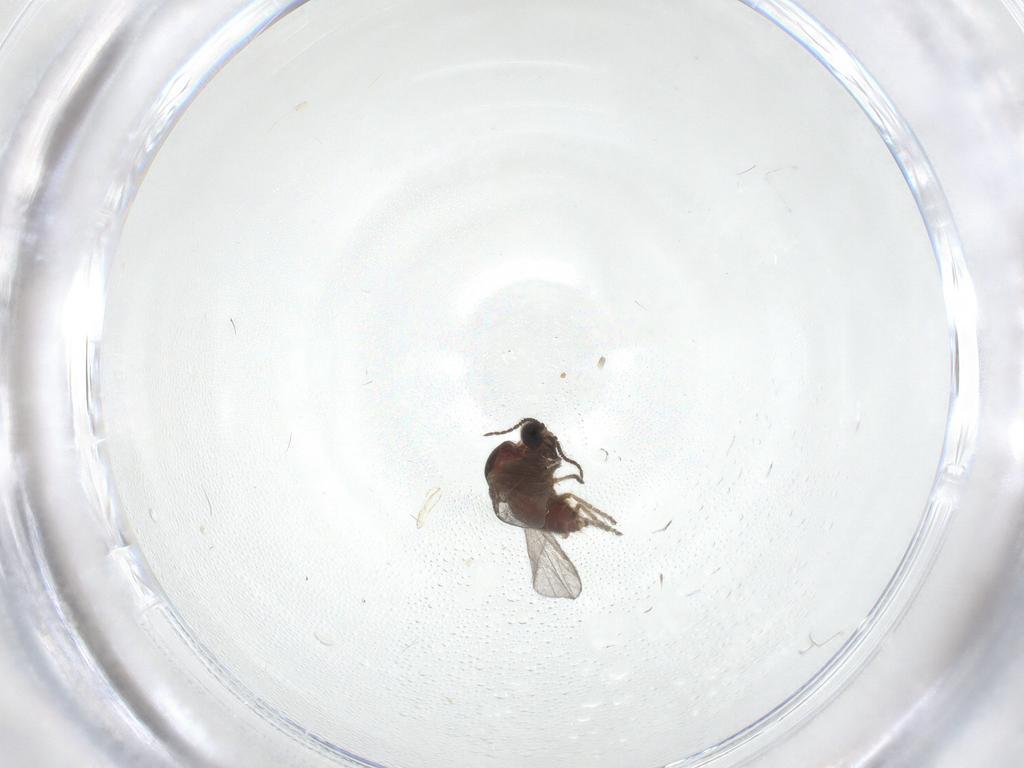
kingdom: Animalia
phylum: Arthropoda
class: Insecta
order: Diptera
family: Ceratopogonidae
